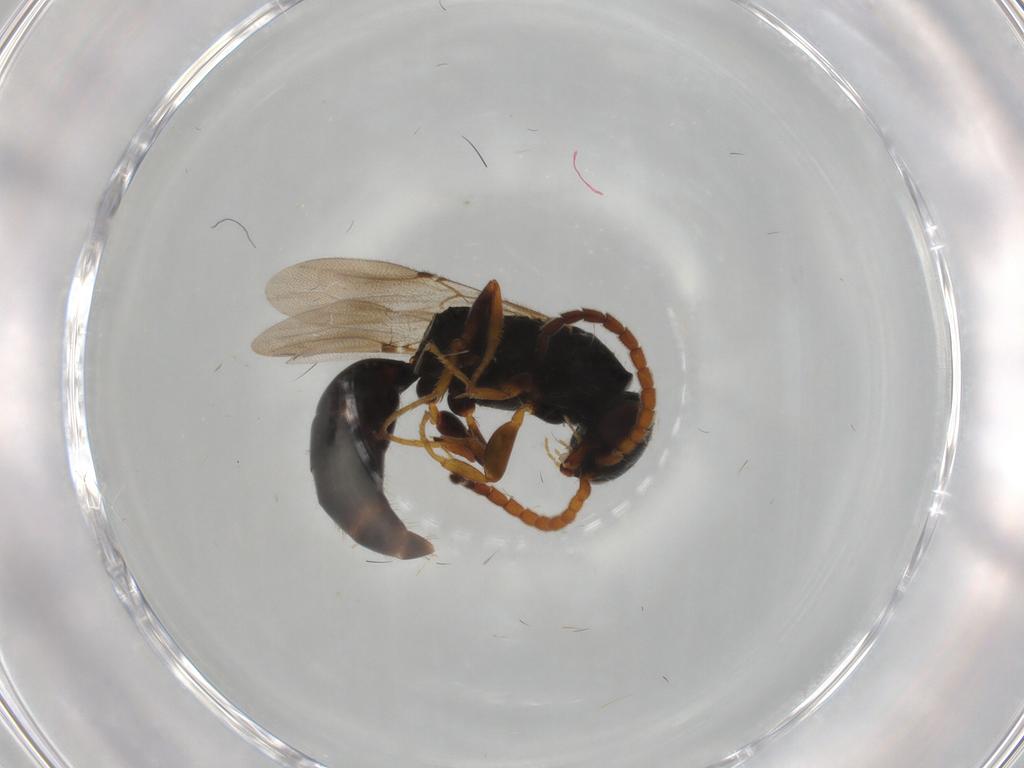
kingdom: Animalia
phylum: Arthropoda
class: Insecta
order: Hymenoptera
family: Bethylidae
